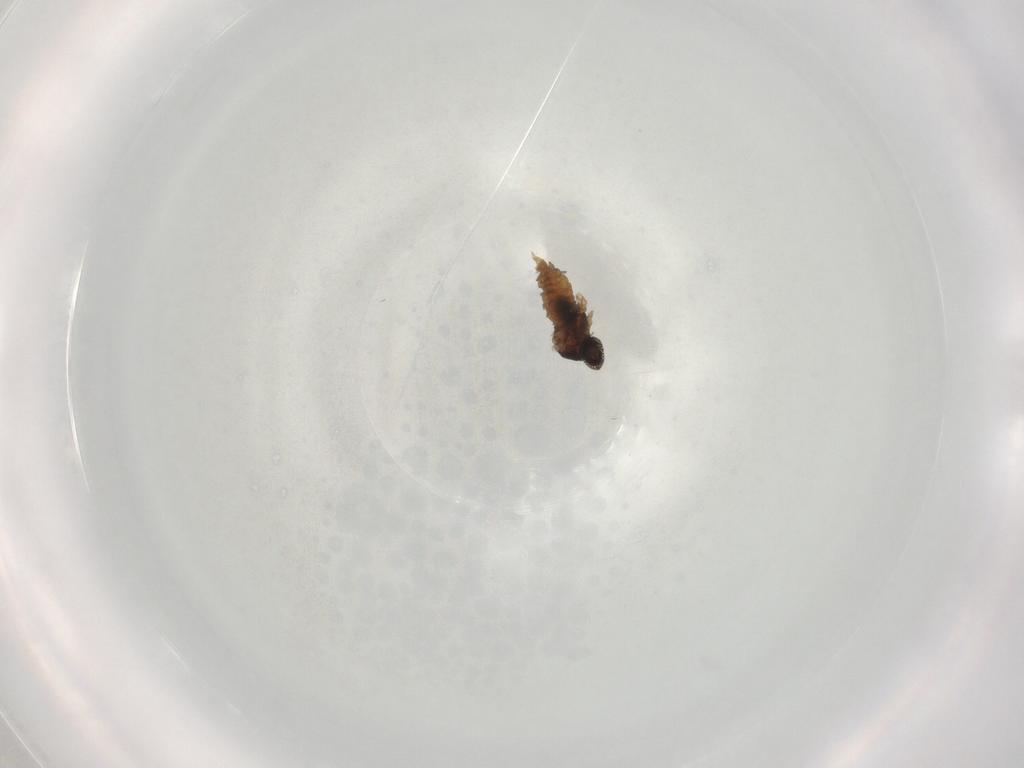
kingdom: Animalia
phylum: Arthropoda
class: Insecta
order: Diptera
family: Cecidomyiidae
